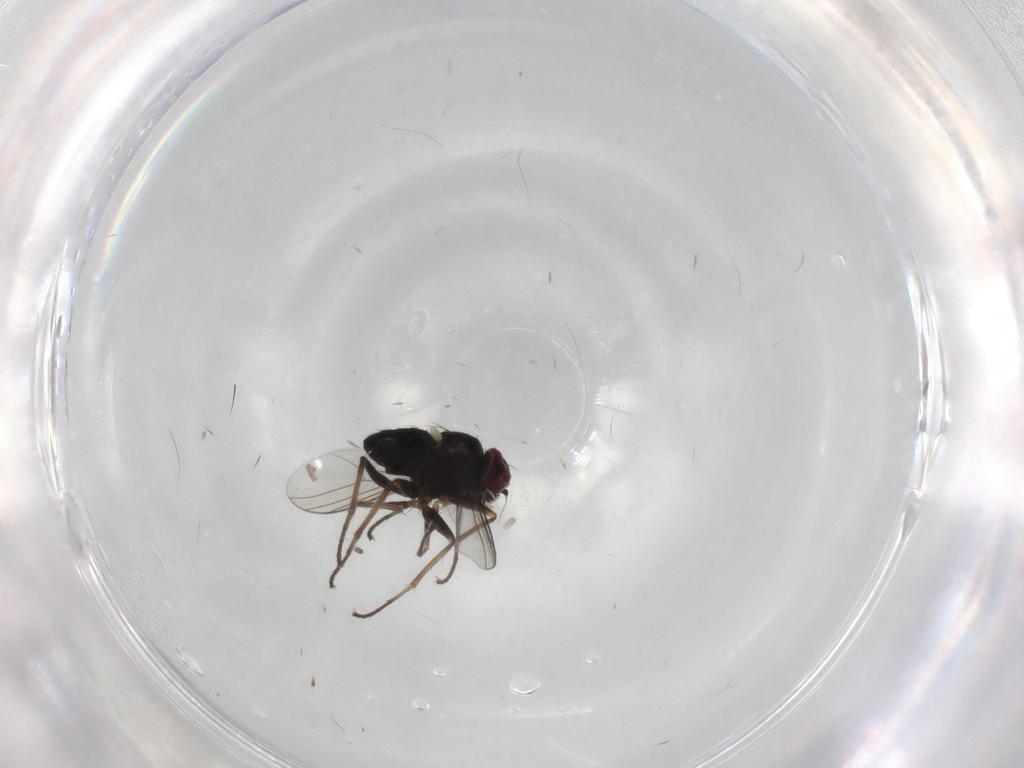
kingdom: Animalia
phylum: Arthropoda
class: Insecta
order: Diptera
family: Dolichopodidae
